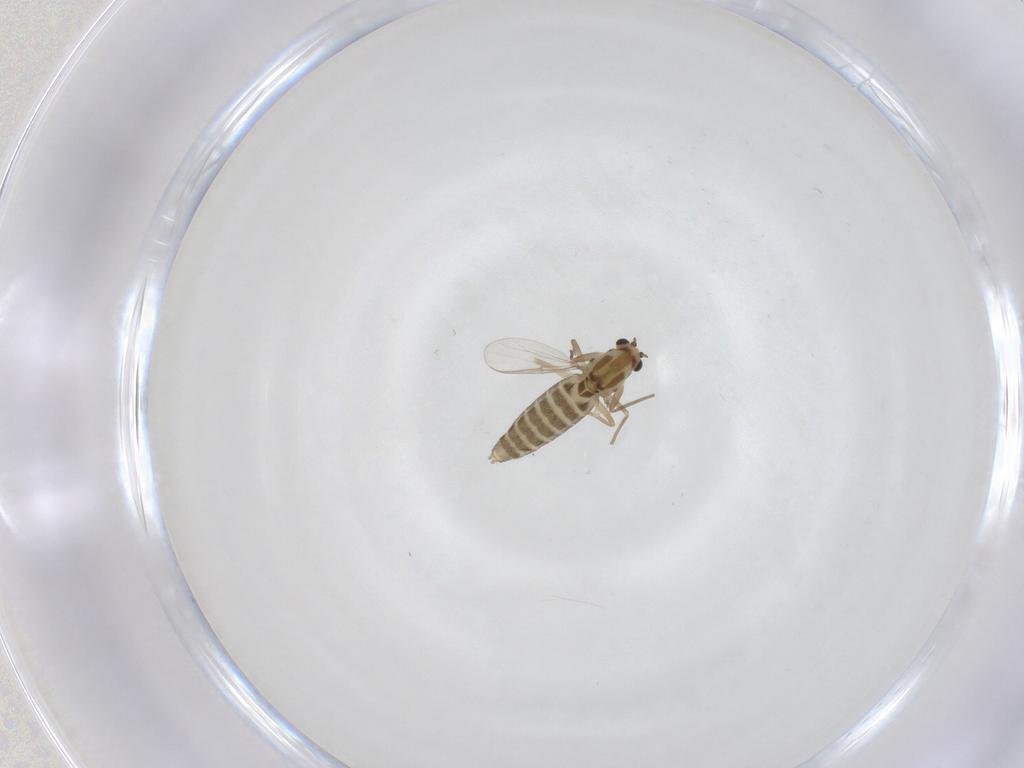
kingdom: Animalia
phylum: Arthropoda
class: Insecta
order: Diptera
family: Chironomidae
